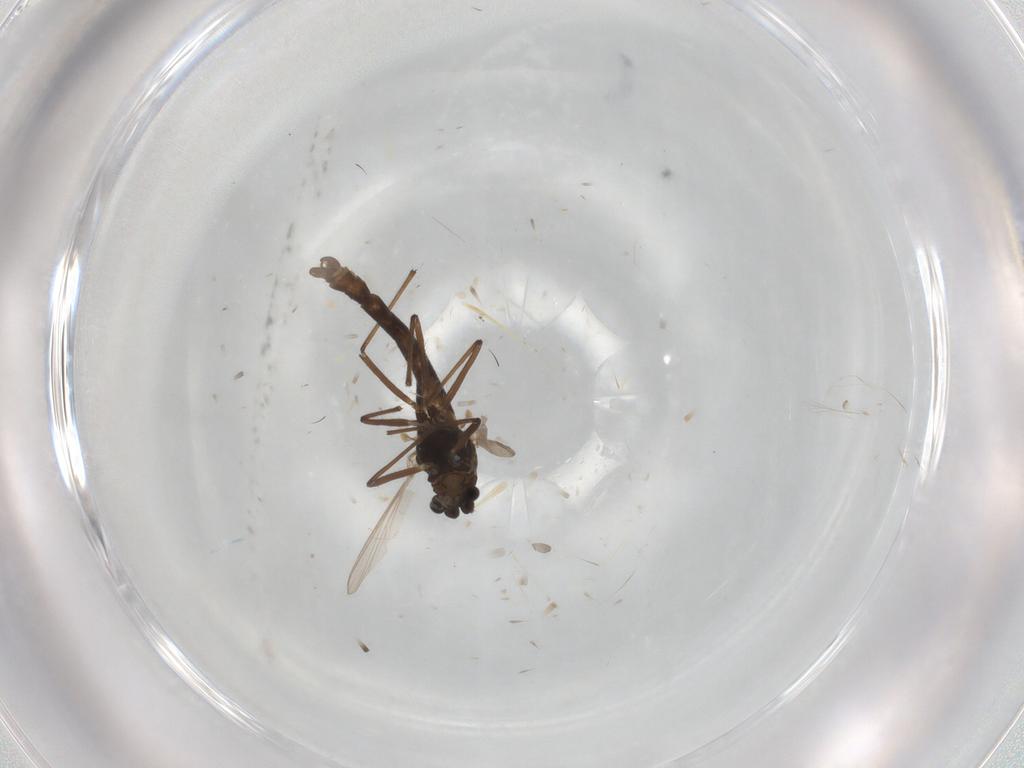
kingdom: Animalia
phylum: Arthropoda
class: Insecta
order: Diptera
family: Chironomidae
